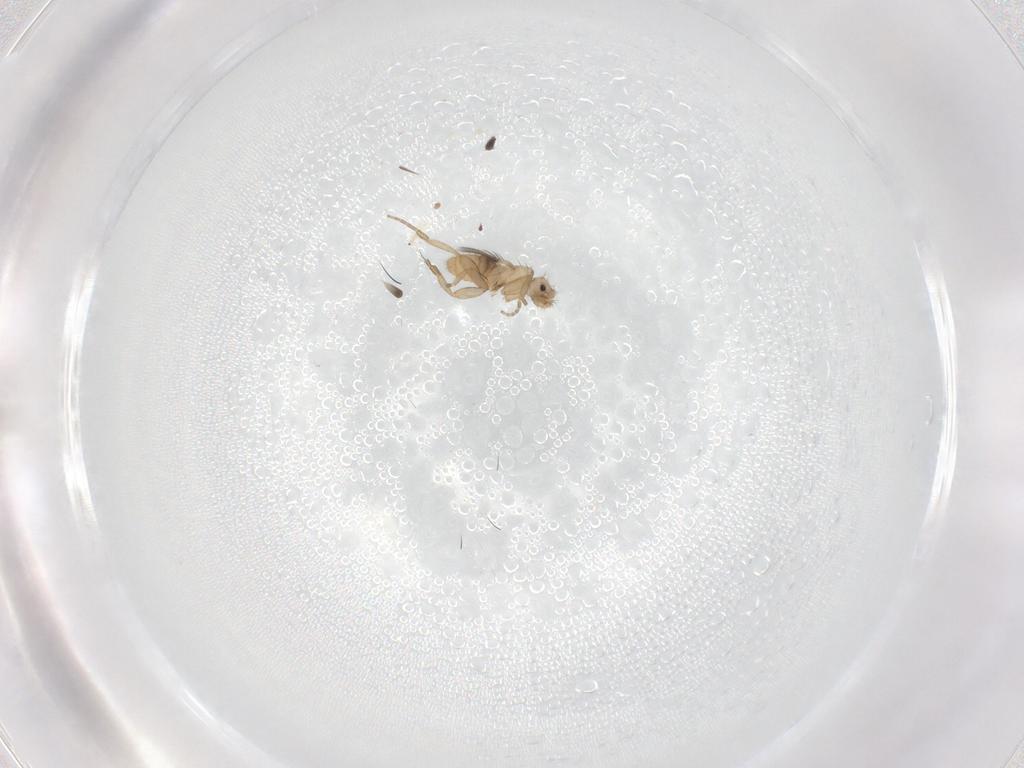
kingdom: Animalia
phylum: Arthropoda
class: Insecta
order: Diptera
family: Psychodidae
